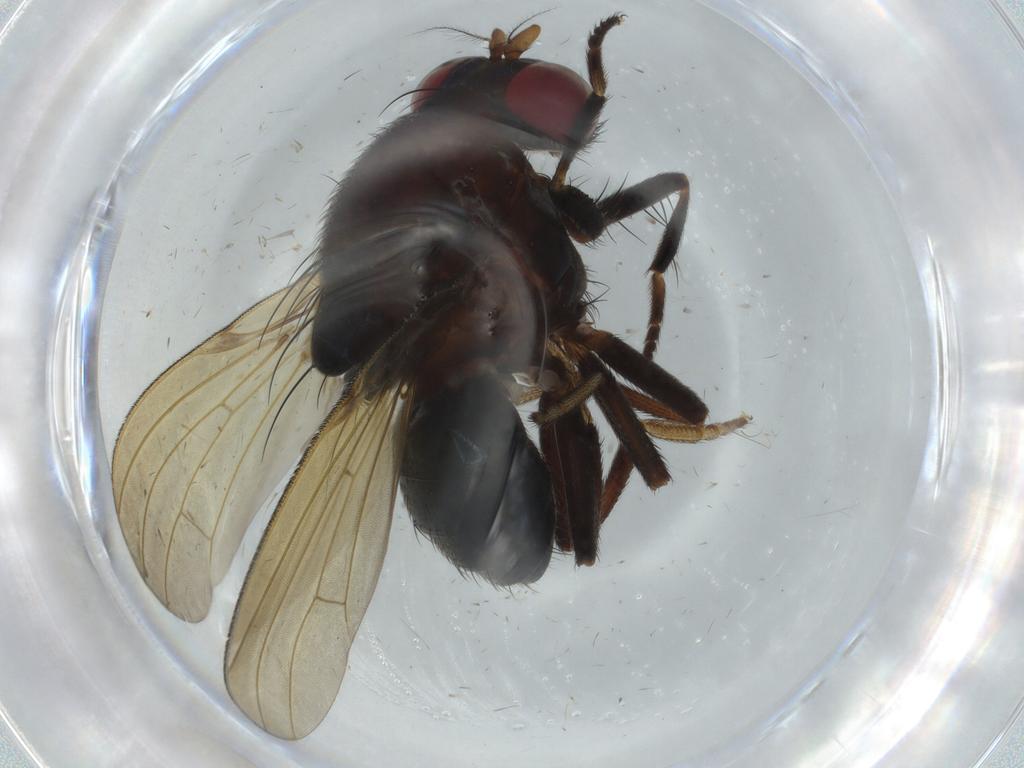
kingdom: Animalia
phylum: Arthropoda
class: Insecta
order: Diptera
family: Lauxaniidae
